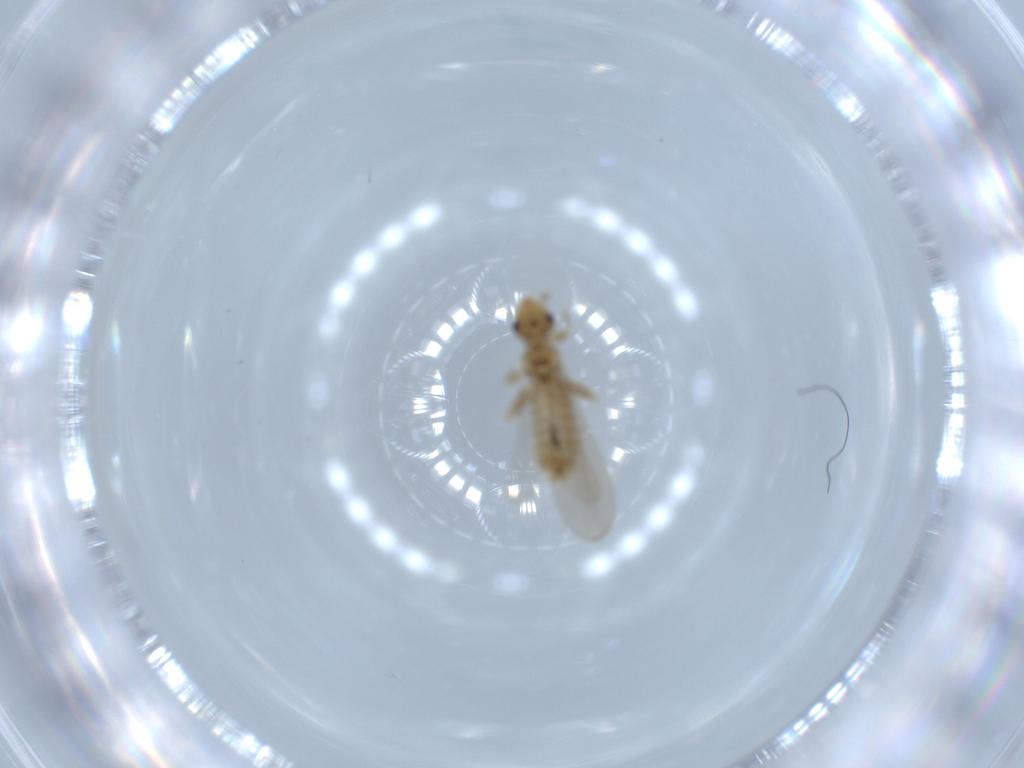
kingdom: Animalia
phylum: Arthropoda
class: Insecta
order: Psocodea
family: Liposcelididae
